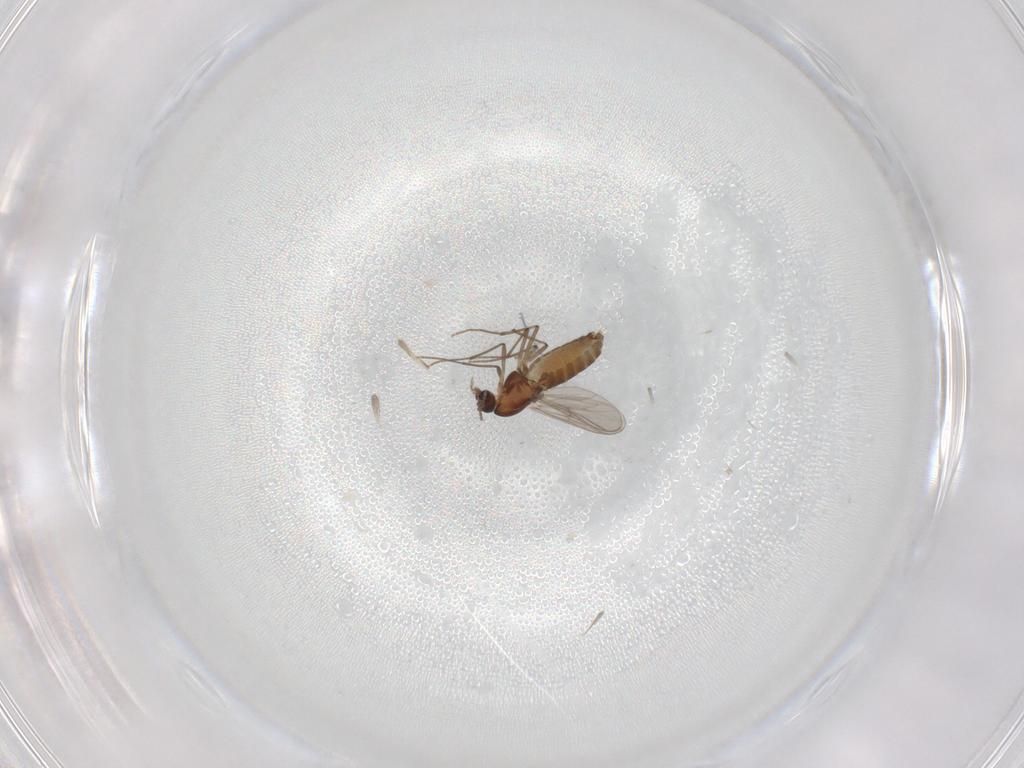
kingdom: Animalia
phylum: Arthropoda
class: Insecta
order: Diptera
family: Chironomidae
